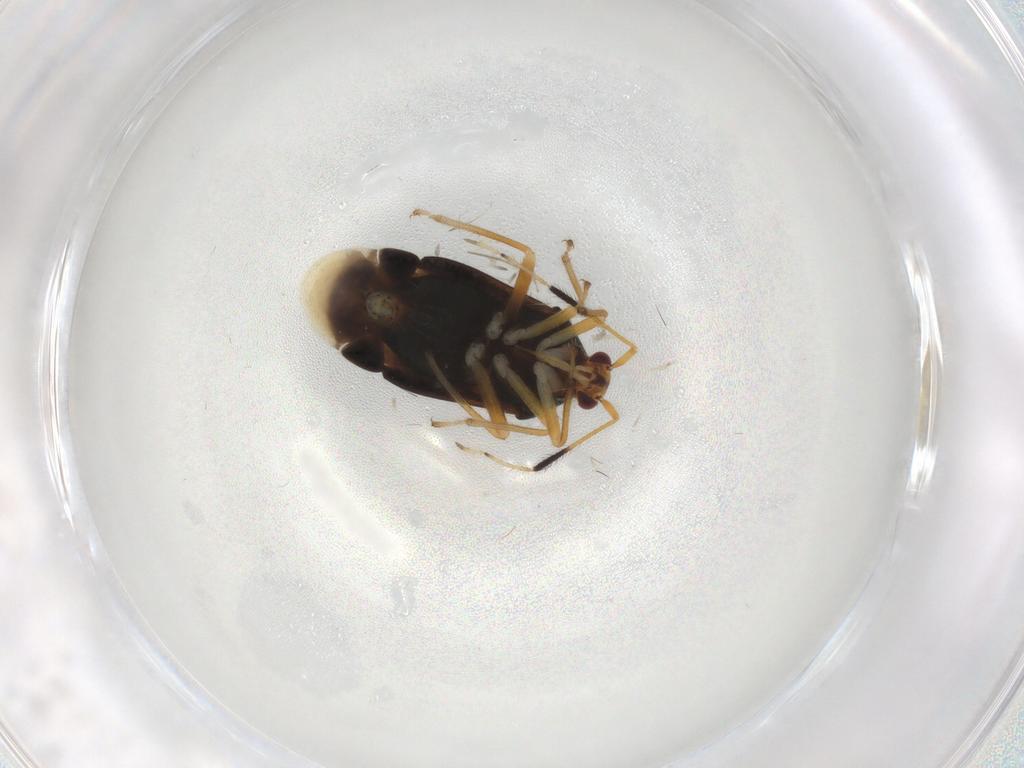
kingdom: Animalia
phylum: Arthropoda
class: Insecta
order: Hemiptera
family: Miridae
